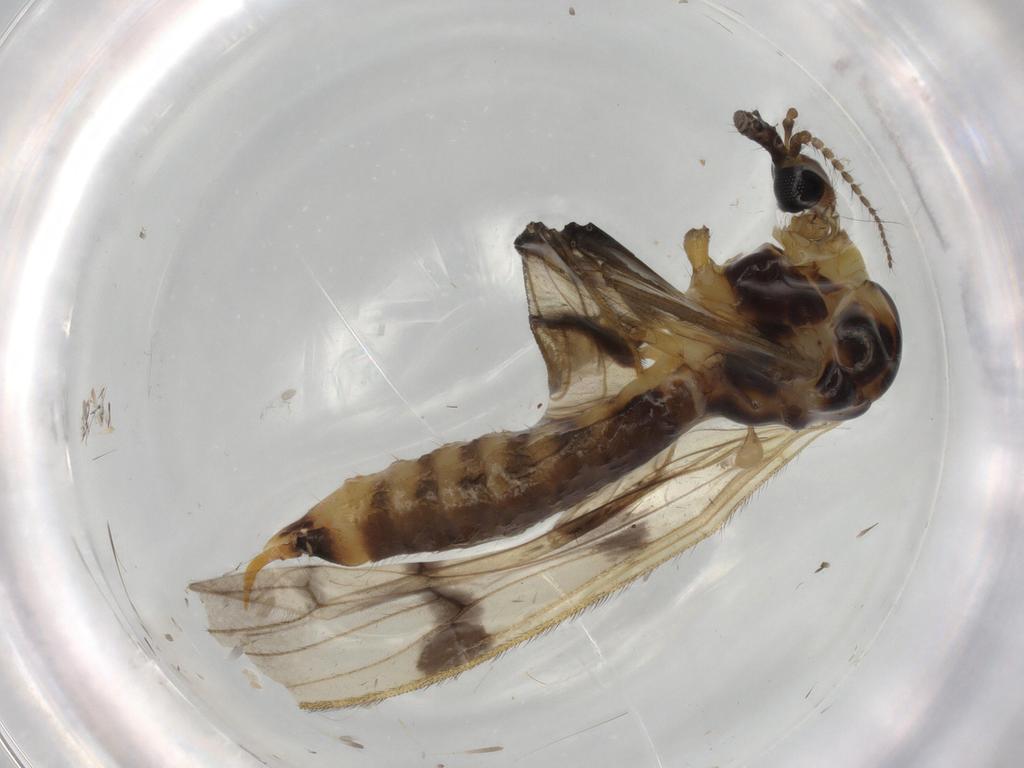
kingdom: Animalia
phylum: Arthropoda
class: Insecta
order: Diptera
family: Limoniidae
